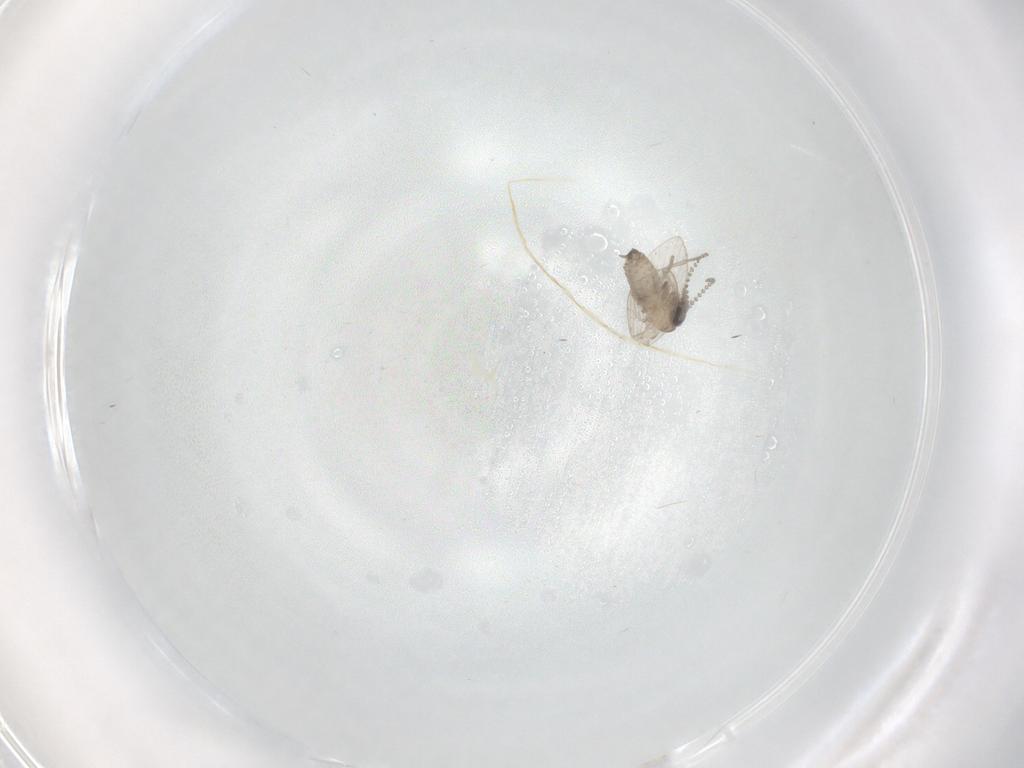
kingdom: Animalia
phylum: Arthropoda
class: Insecta
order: Diptera
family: Psychodidae
